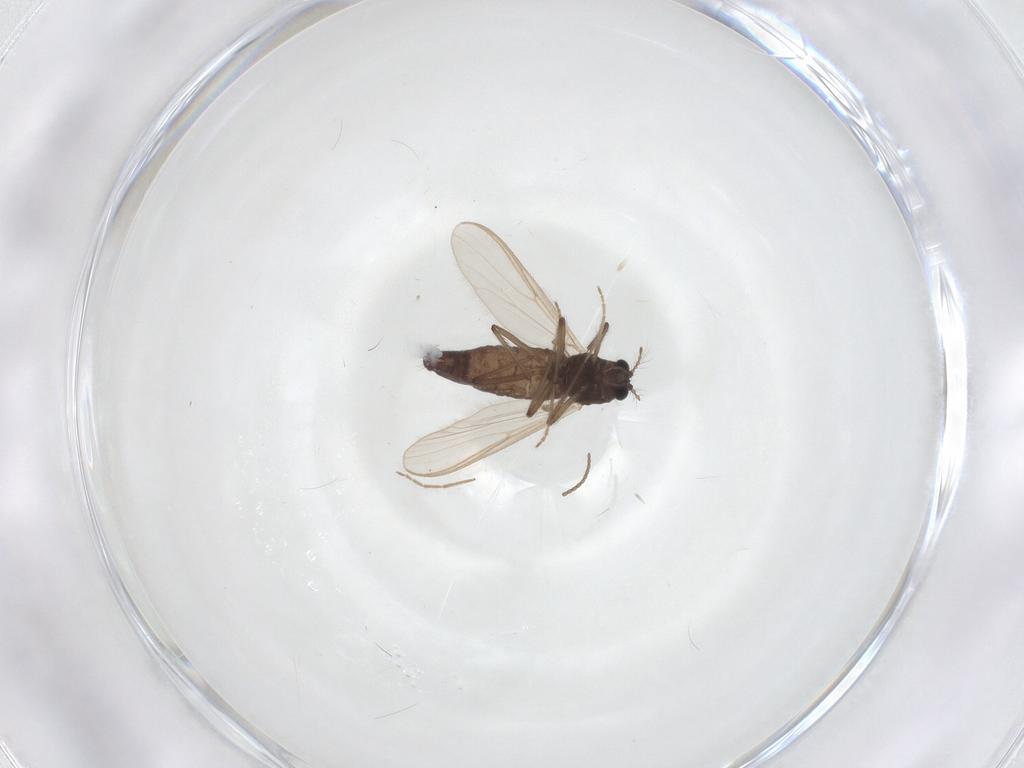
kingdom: Animalia
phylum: Arthropoda
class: Insecta
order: Diptera
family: Chironomidae
